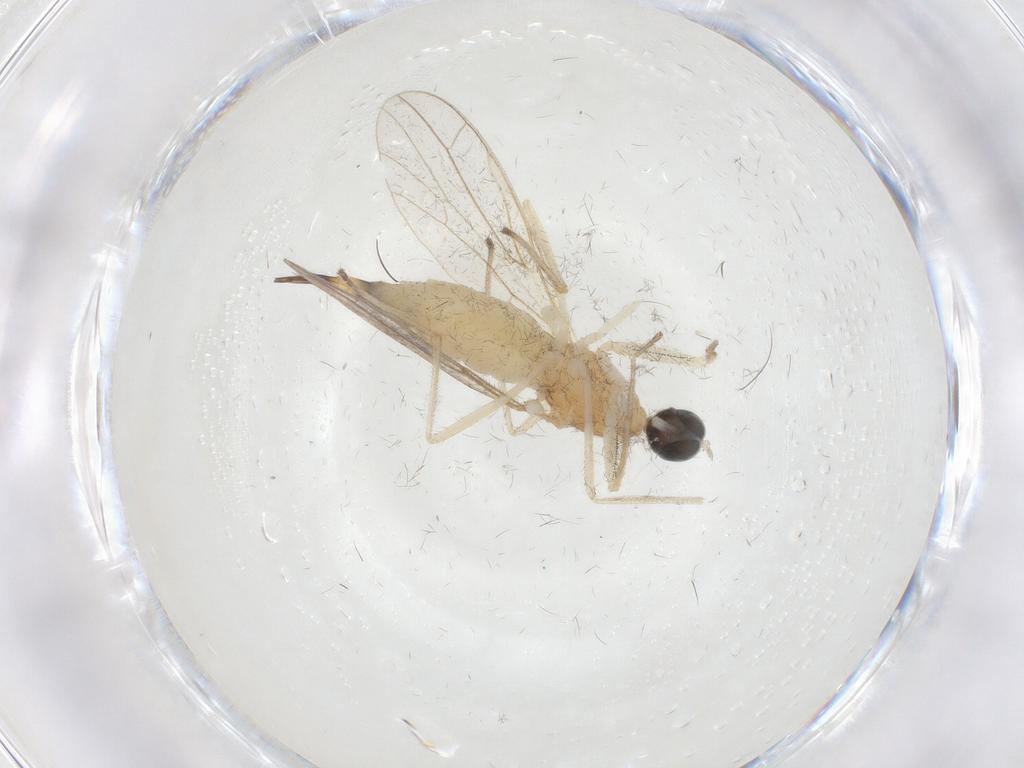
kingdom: Animalia
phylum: Arthropoda
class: Insecta
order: Diptera
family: Empididae
